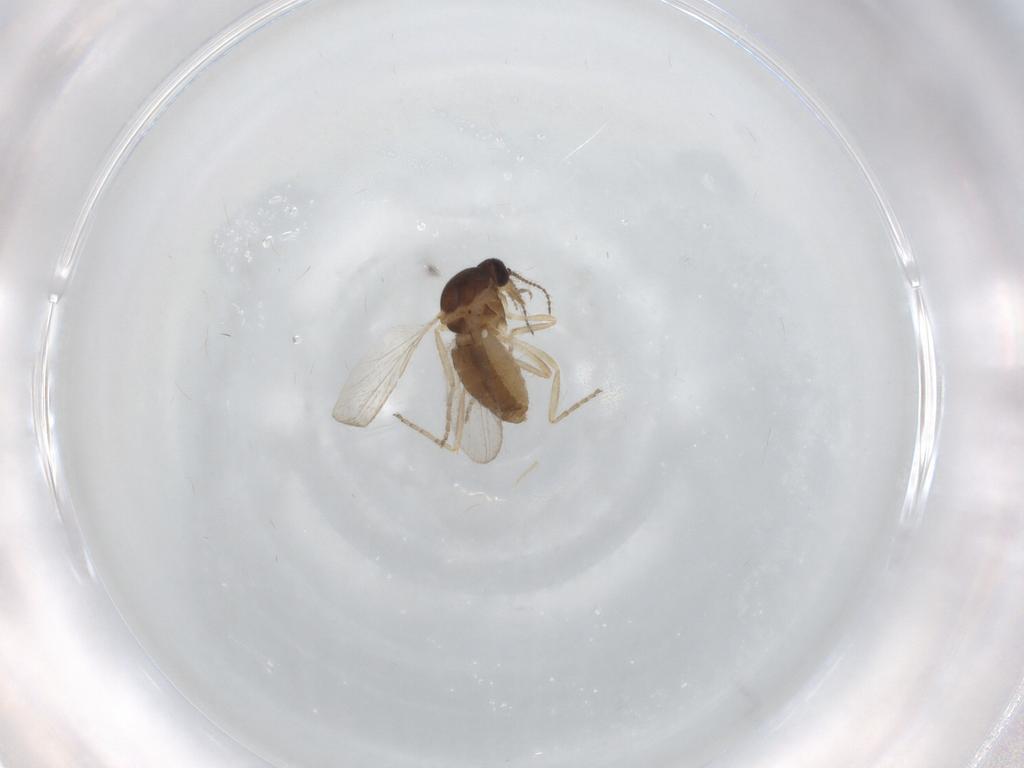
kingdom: Animalia
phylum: Arthropoda
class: Insecta
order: Diptera
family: Ceratopogonidae
